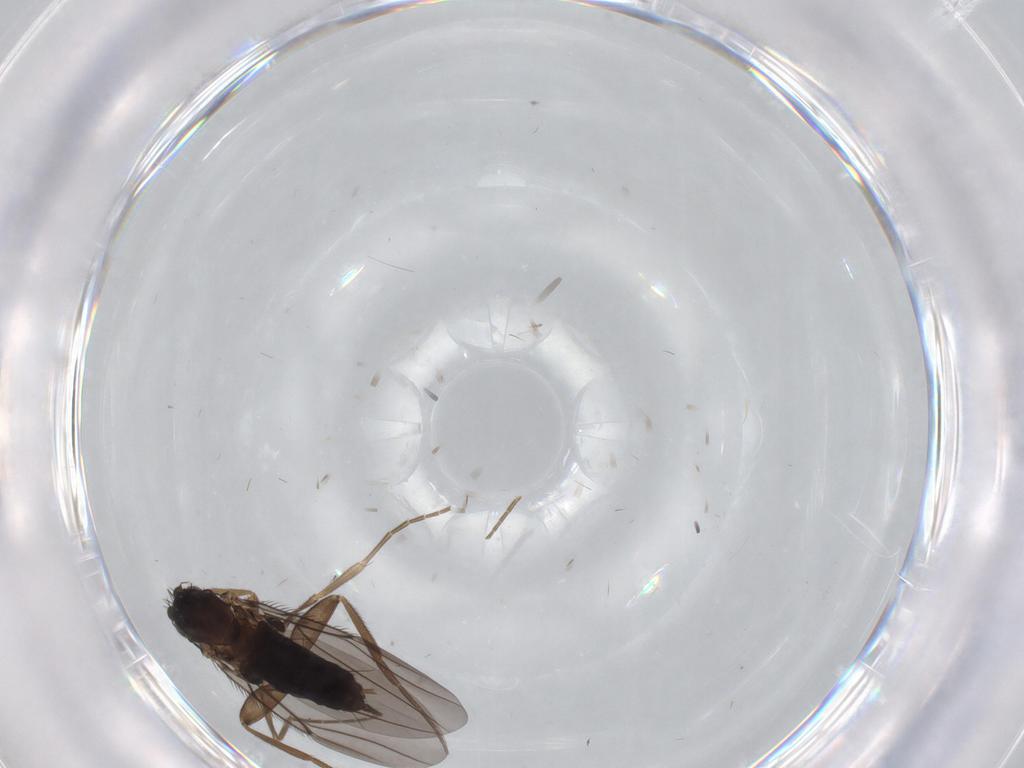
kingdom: Animalia
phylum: Arthropoda
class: Insecta
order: Diptera
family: Phoridae
